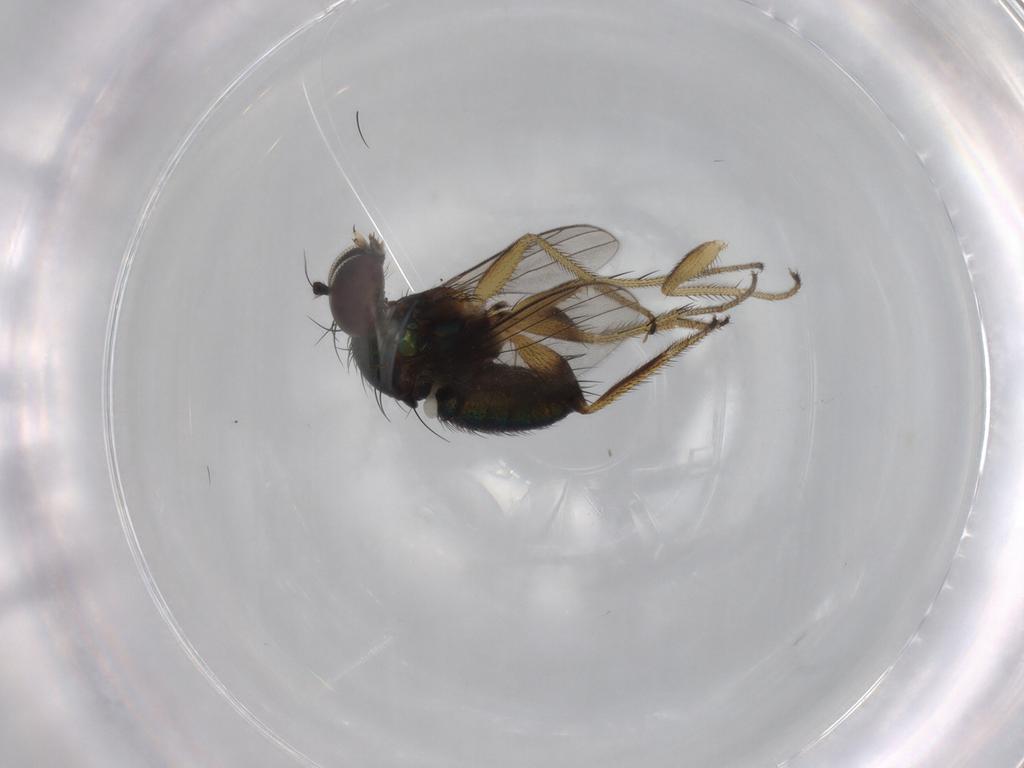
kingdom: Animalia
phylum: Arthropoda
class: Insecta
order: Diptera
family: Dolichopodidae
